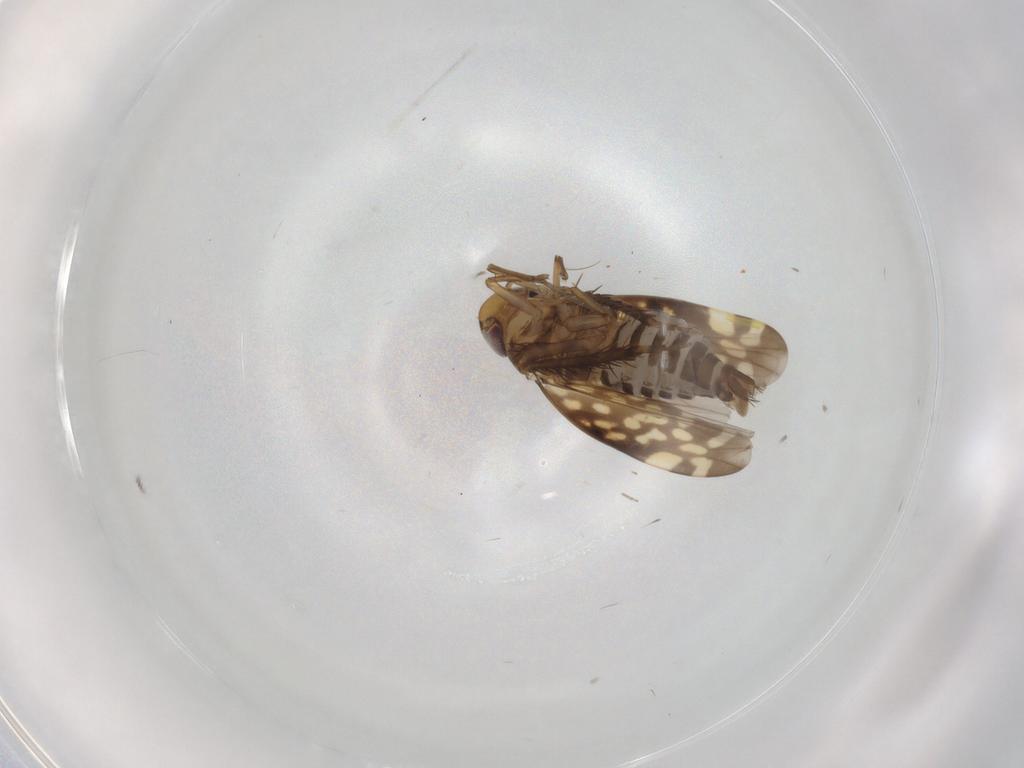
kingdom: Animalia
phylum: Arthropoda
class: Insecta
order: Hemiptera
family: Cicadellidae
